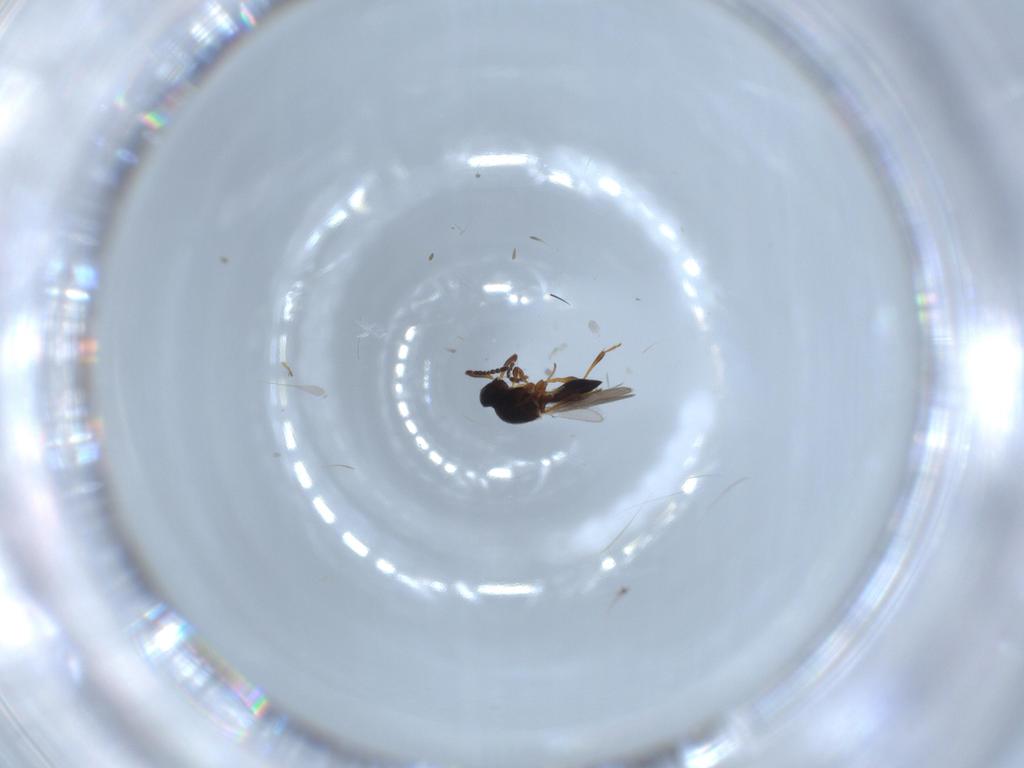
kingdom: Animalia
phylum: Arthropoda
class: Insecta
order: Hymenoptera
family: Platygastridae
